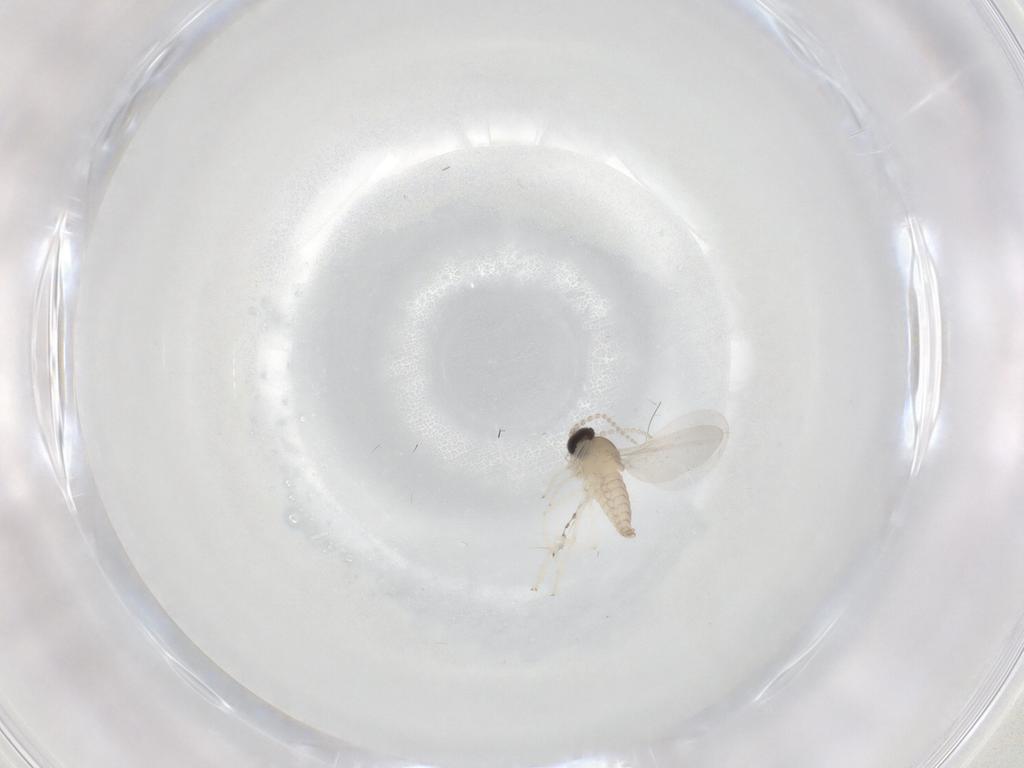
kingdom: Animalia
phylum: Arthropoda
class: Insecta
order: Diptera
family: Cecidomyiidae
